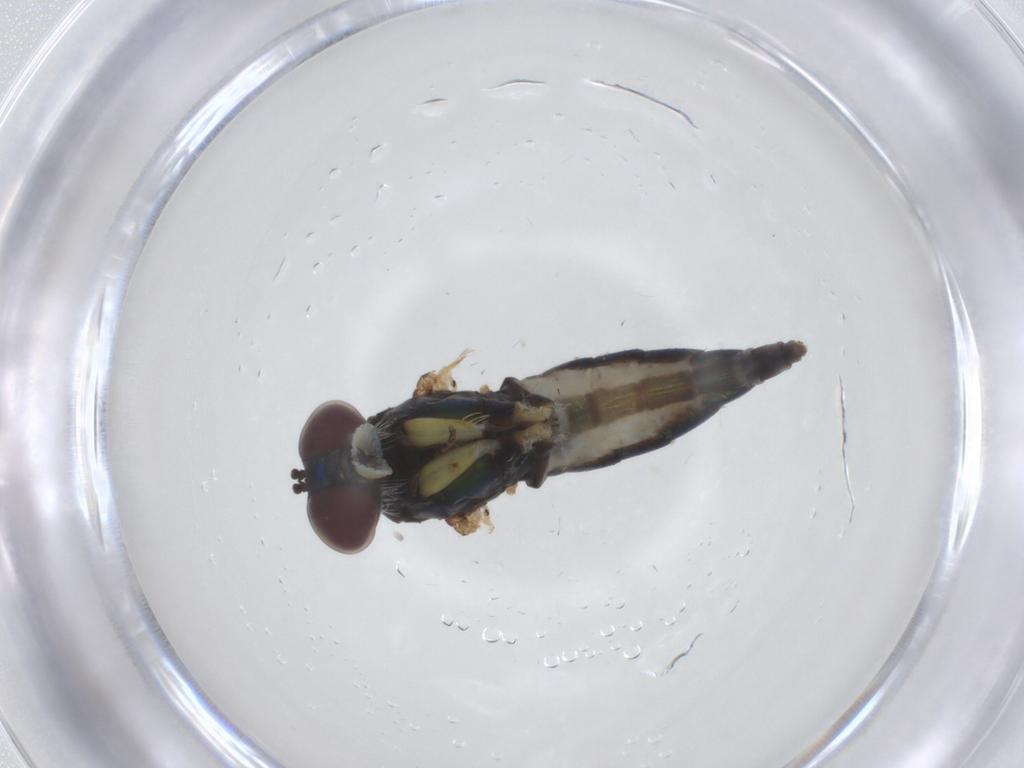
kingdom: Animalia
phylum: Arthropoda
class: Insecta
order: Diptera
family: Dolichopodidae
